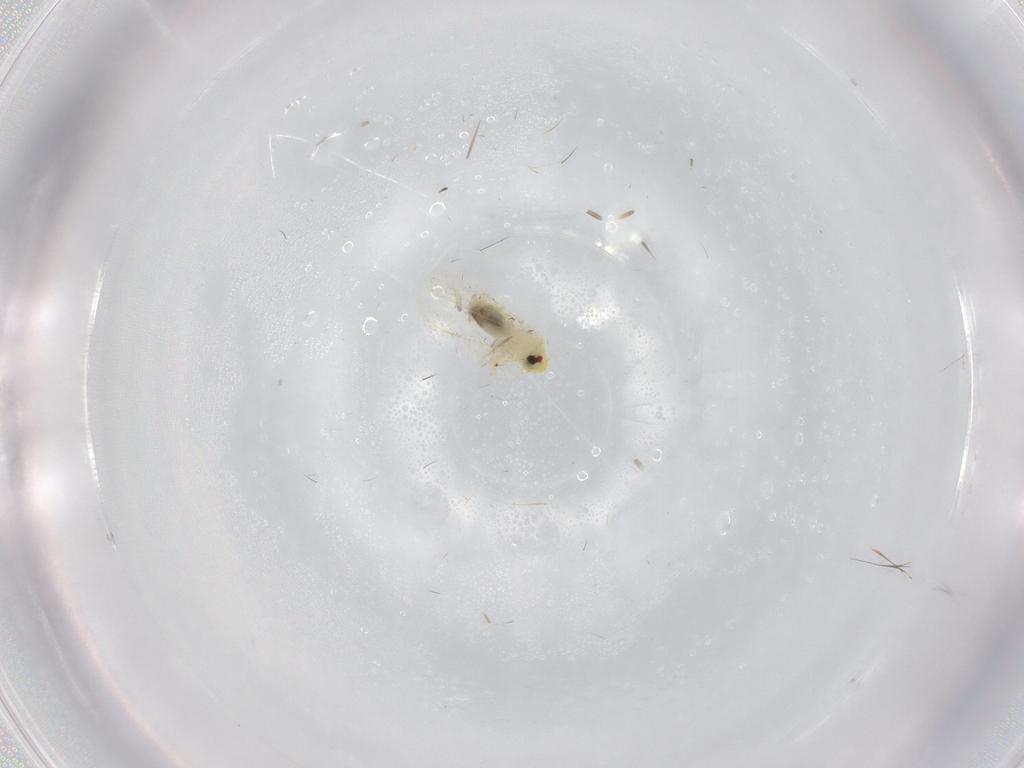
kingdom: Animalia
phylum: Arthropoda
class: Insecta
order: Hemiptera
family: Aleyrodidae
